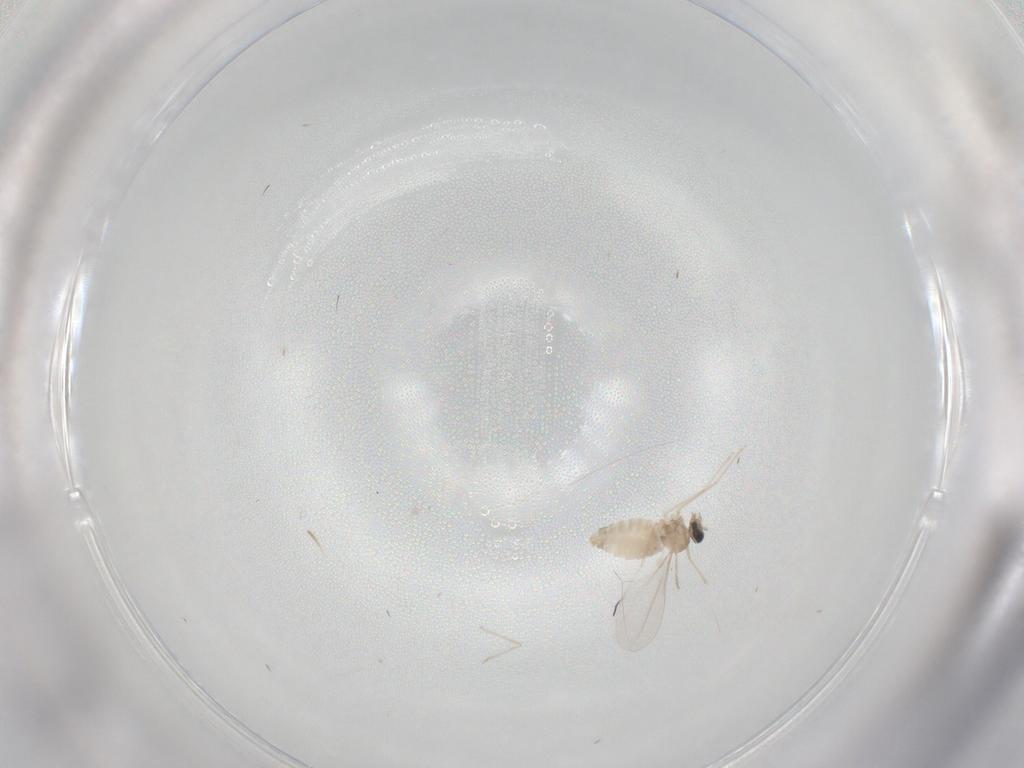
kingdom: Animalia
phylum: Arthropoda
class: Insecta
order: Diptera
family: Cecidomyiidae
